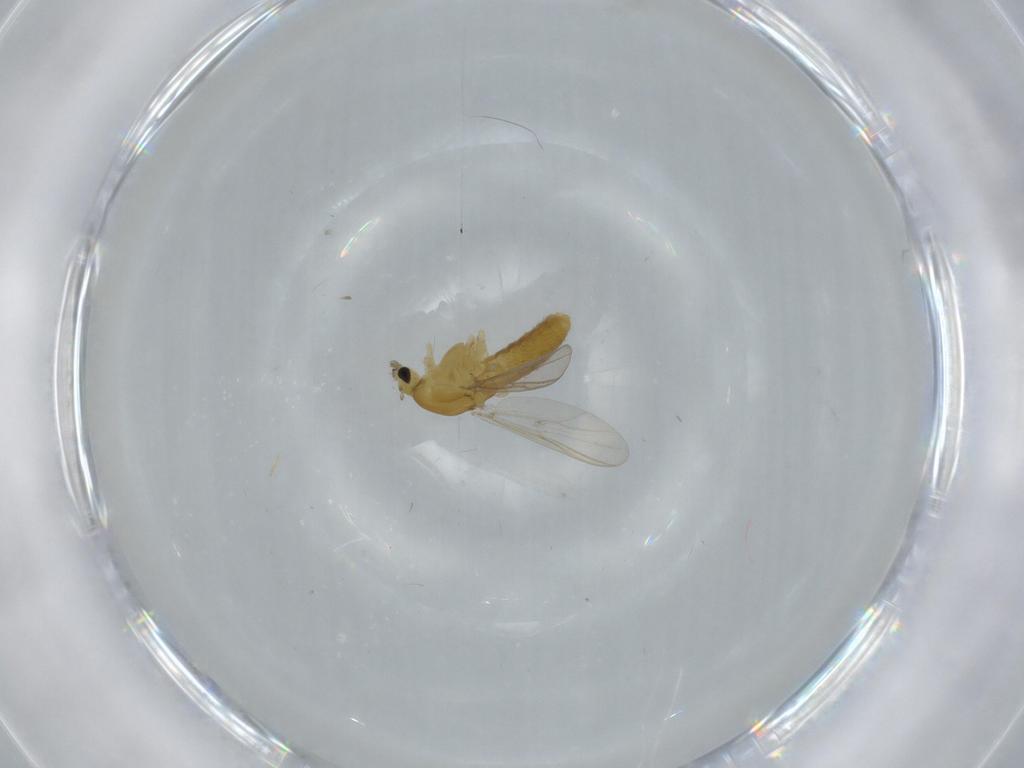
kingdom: Animalia
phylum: Arthropoda
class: Insecta
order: Diptera
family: Chironomidae
